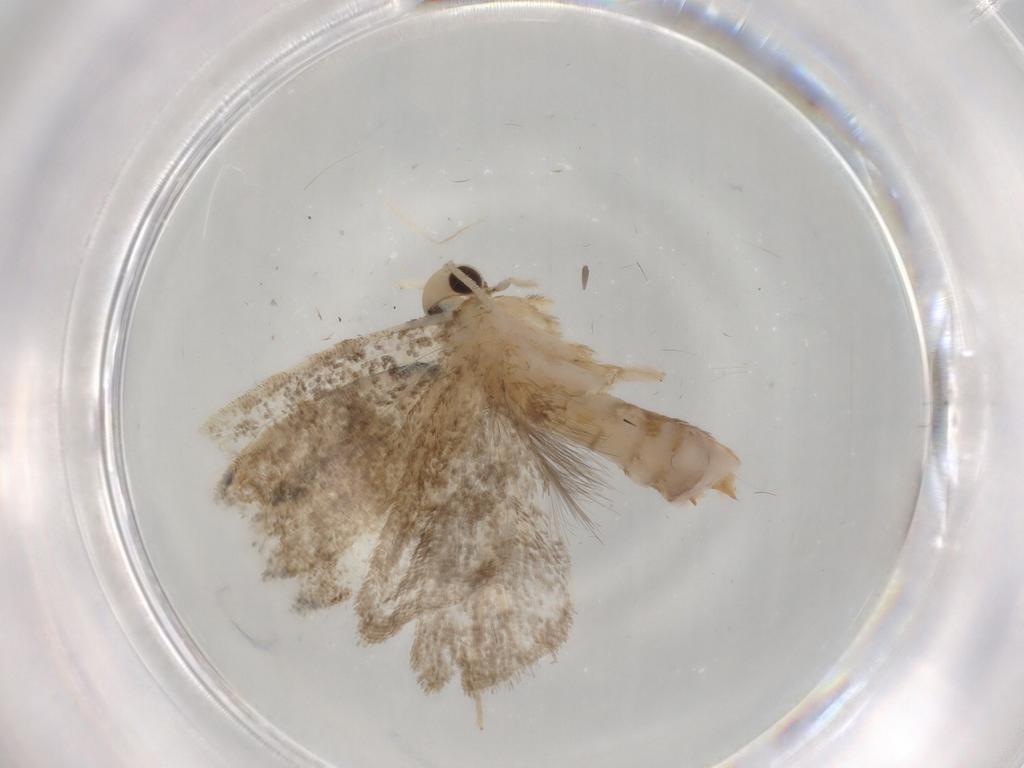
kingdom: Animalia
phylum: Arthropoda
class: Insecta
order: Lepidoptera
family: Dryadaulidae
